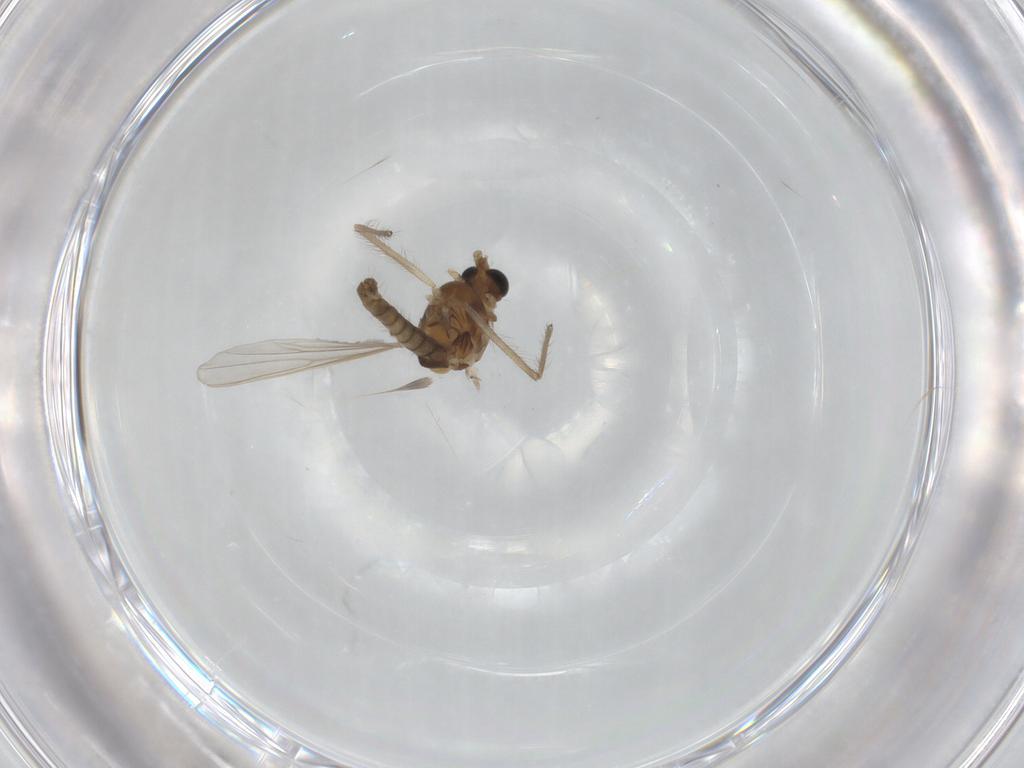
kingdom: Animalia
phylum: Arthropoda
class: Insecta
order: Diptera
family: Chironomidae
